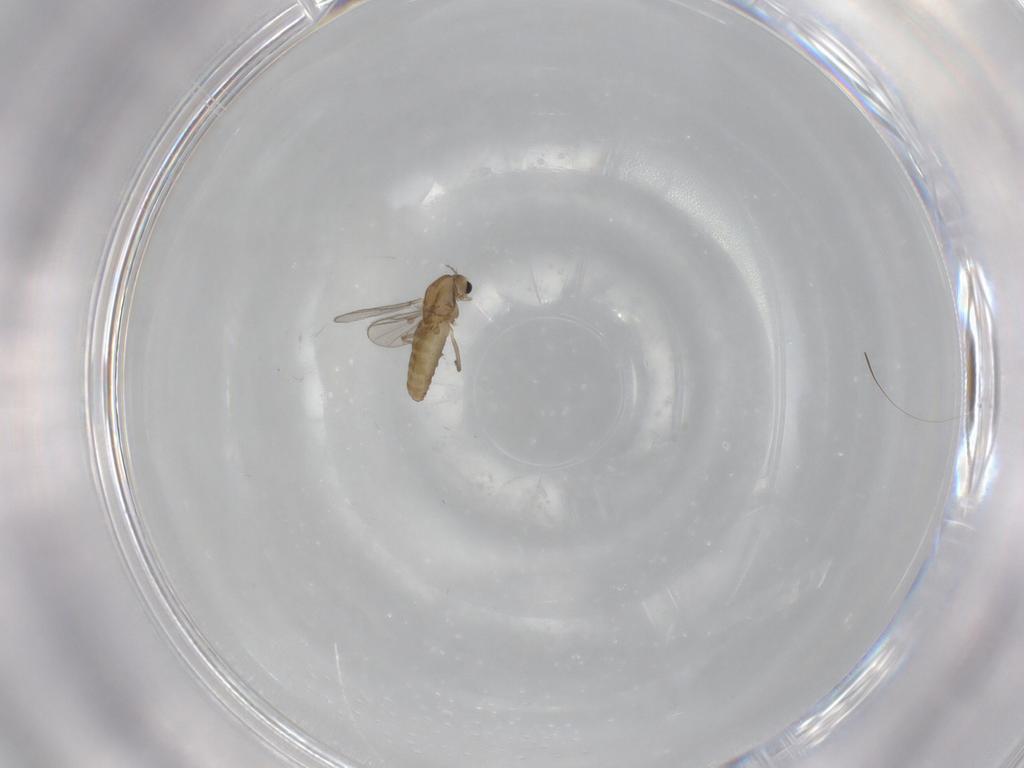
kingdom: Animalia
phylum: Arthropoda
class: Insecta
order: Diptera
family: Chironomidae
